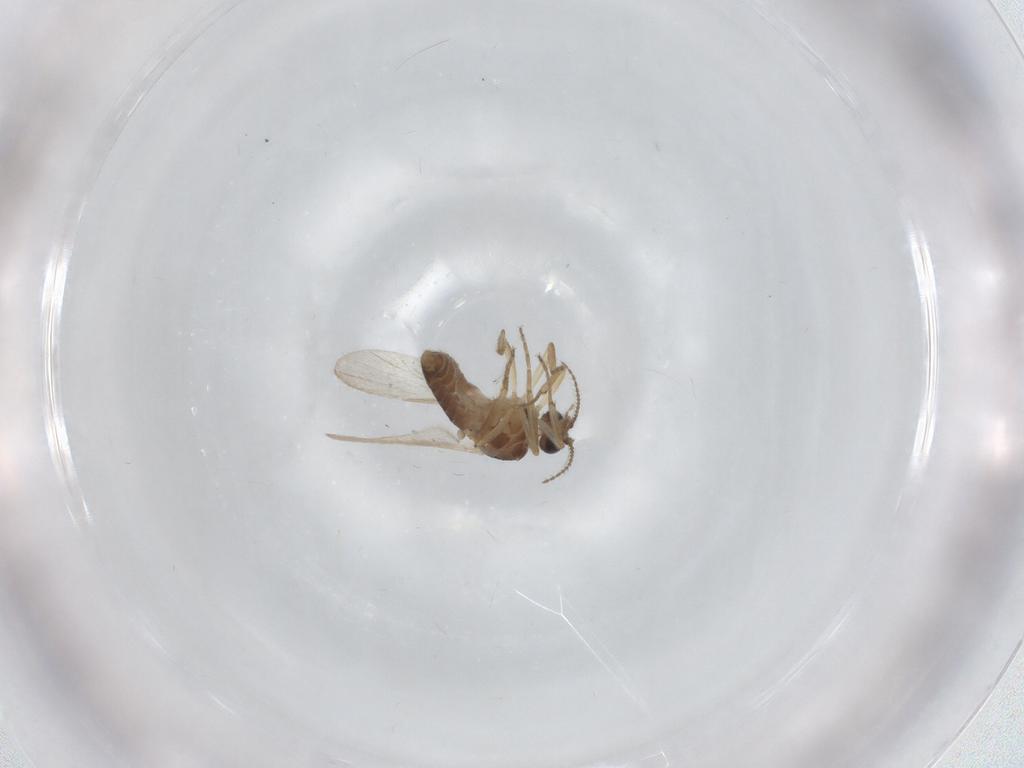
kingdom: Animalia
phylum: Arthropoda
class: Insecta
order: Diptera
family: Ceratopogonidae
